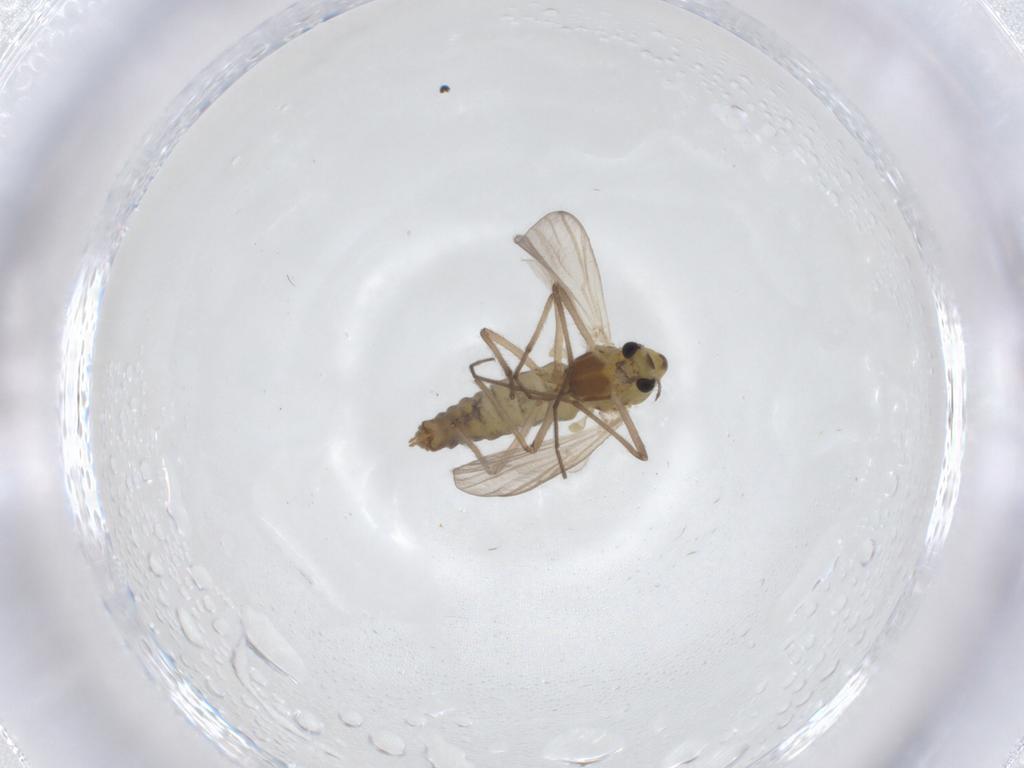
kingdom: Animalia
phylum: Arthropoda
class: Insecta
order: Diptera
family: Chironomidae
